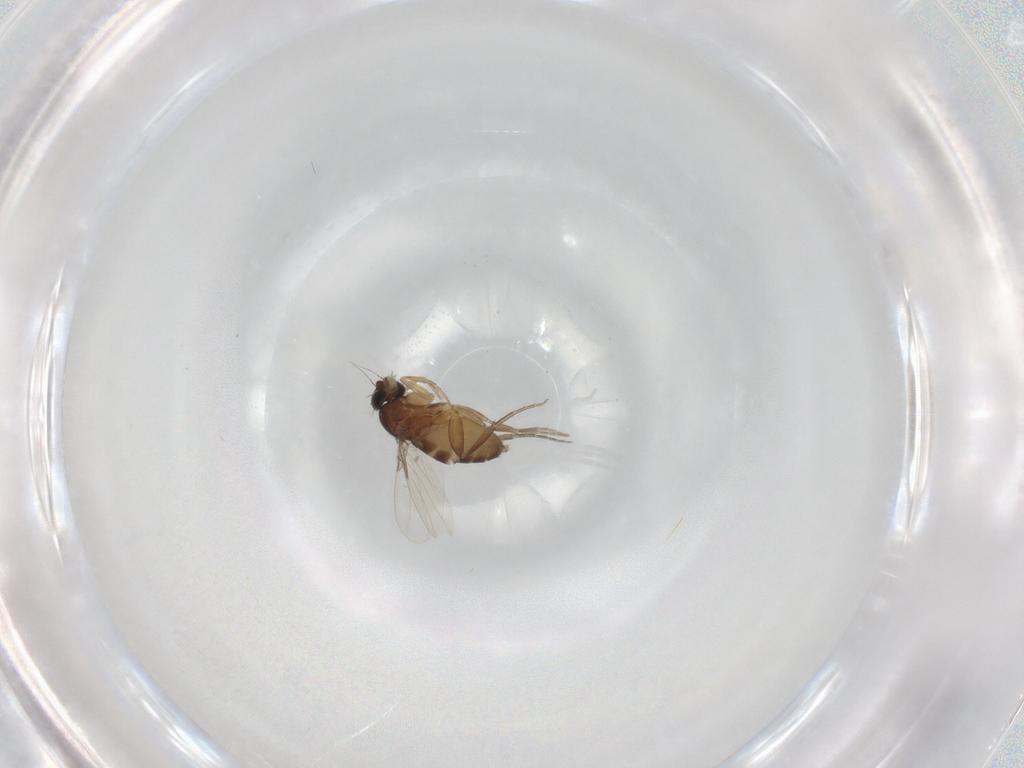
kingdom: Animalia
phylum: Arthropoda
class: Insecta
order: Diptera
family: Phoridae
